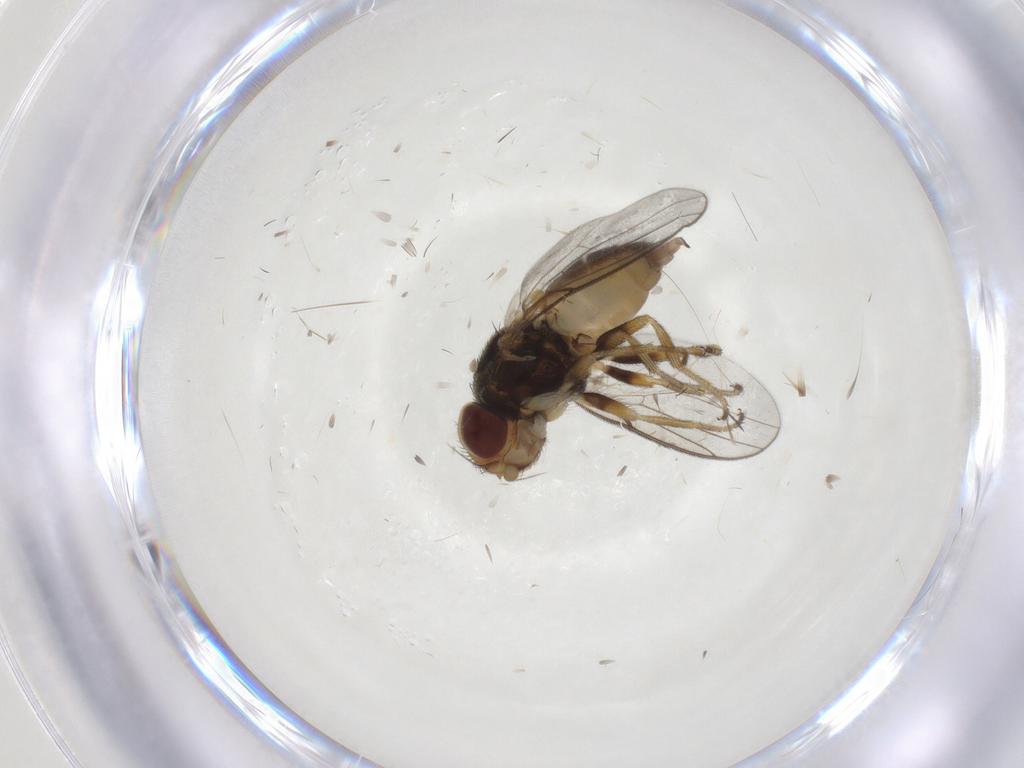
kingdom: Animalia
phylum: Arthropoda
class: Insecta
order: Diptera
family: Chloropidae
